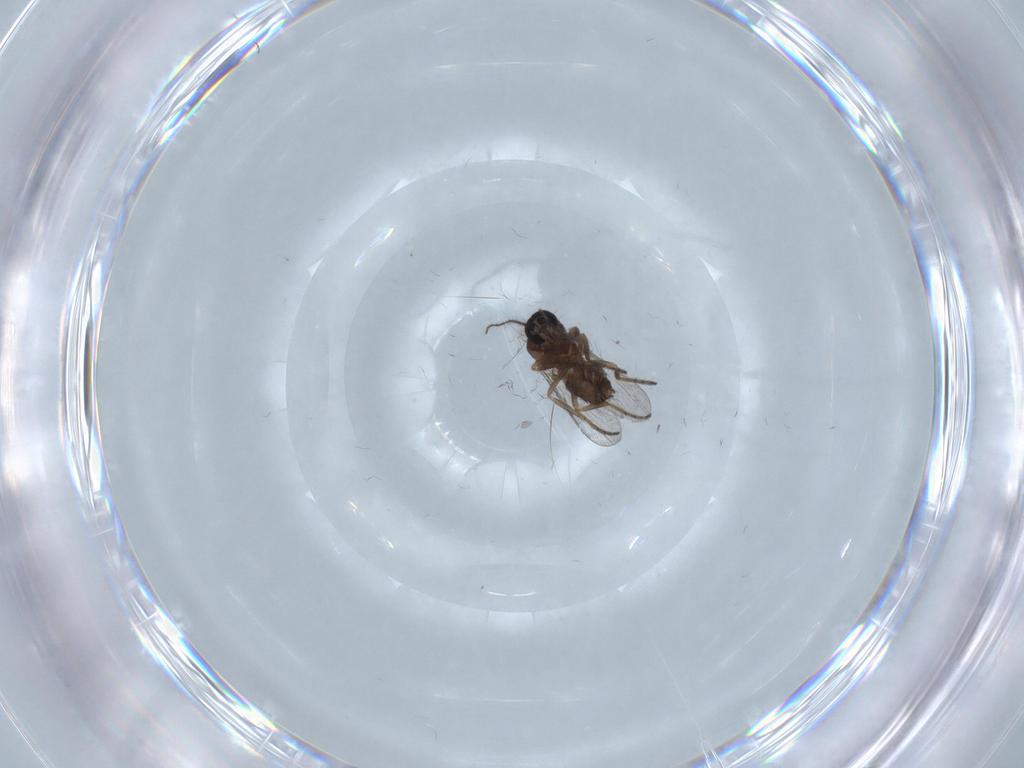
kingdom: Animalia
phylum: Arthropoda
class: Insecta
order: Diptera
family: Ceratopogonidae
